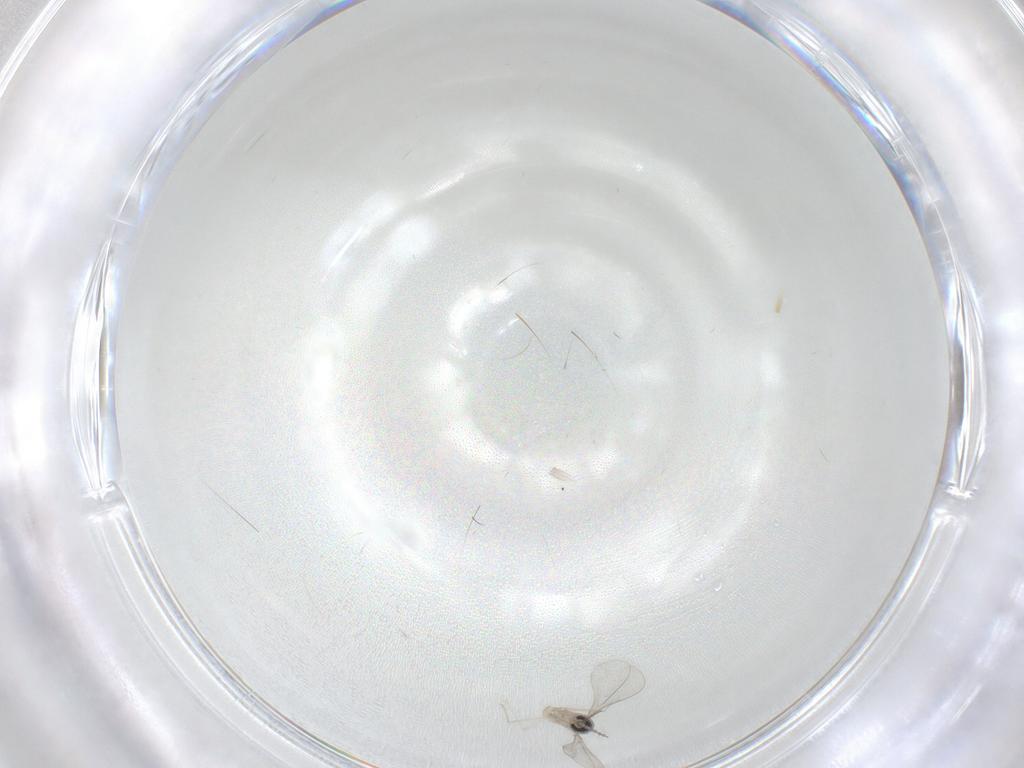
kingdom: Animalia
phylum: Arthropoda
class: Insecta
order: Diptera
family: Cecidomyiidae
